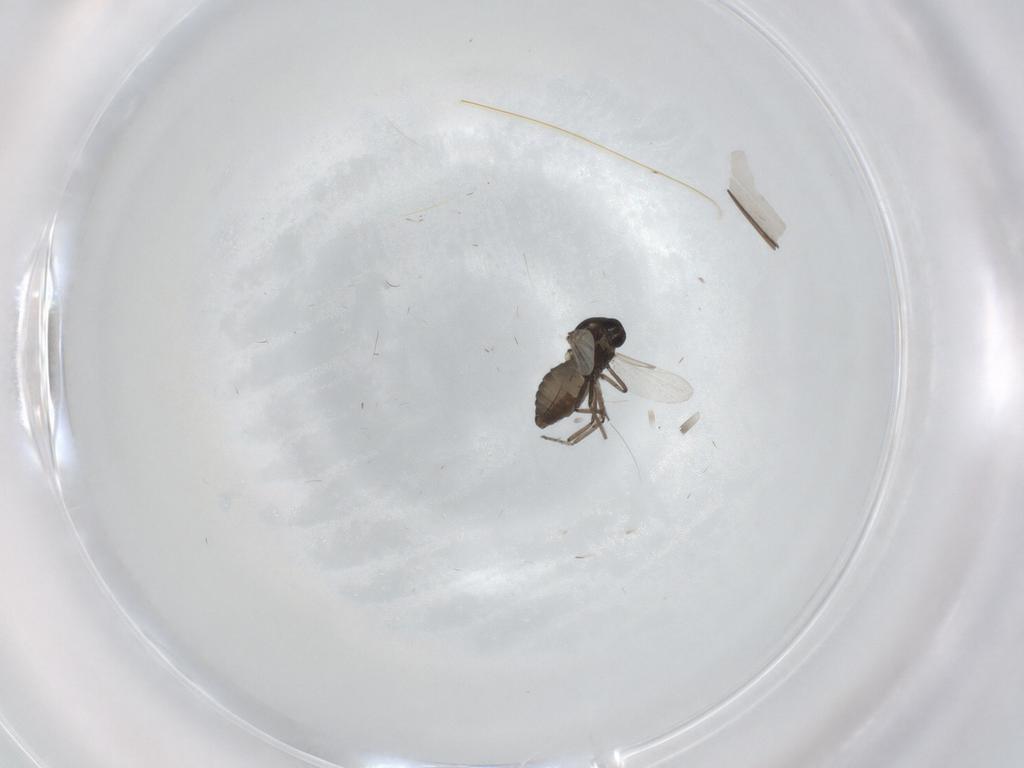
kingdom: Animalia
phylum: Arthropoda
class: Insecta
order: Diptera
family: Ceratopogonidae
